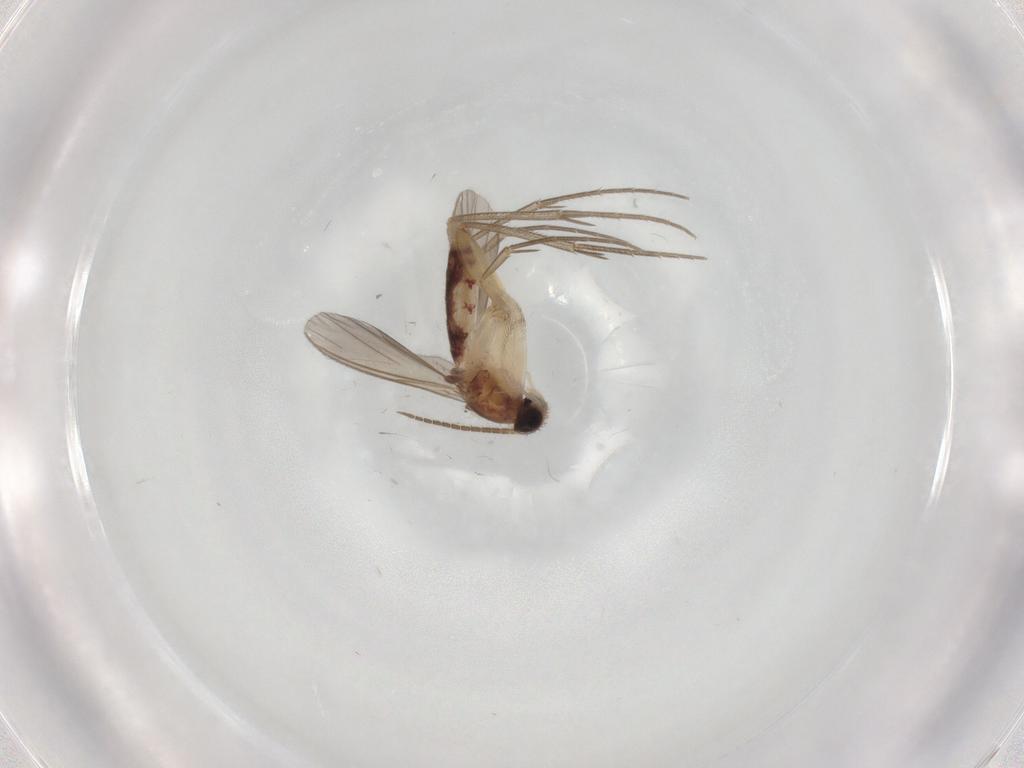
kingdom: Animalia
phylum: Arthropoda
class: Insecta
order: Diptera
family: Mycetophilidae
